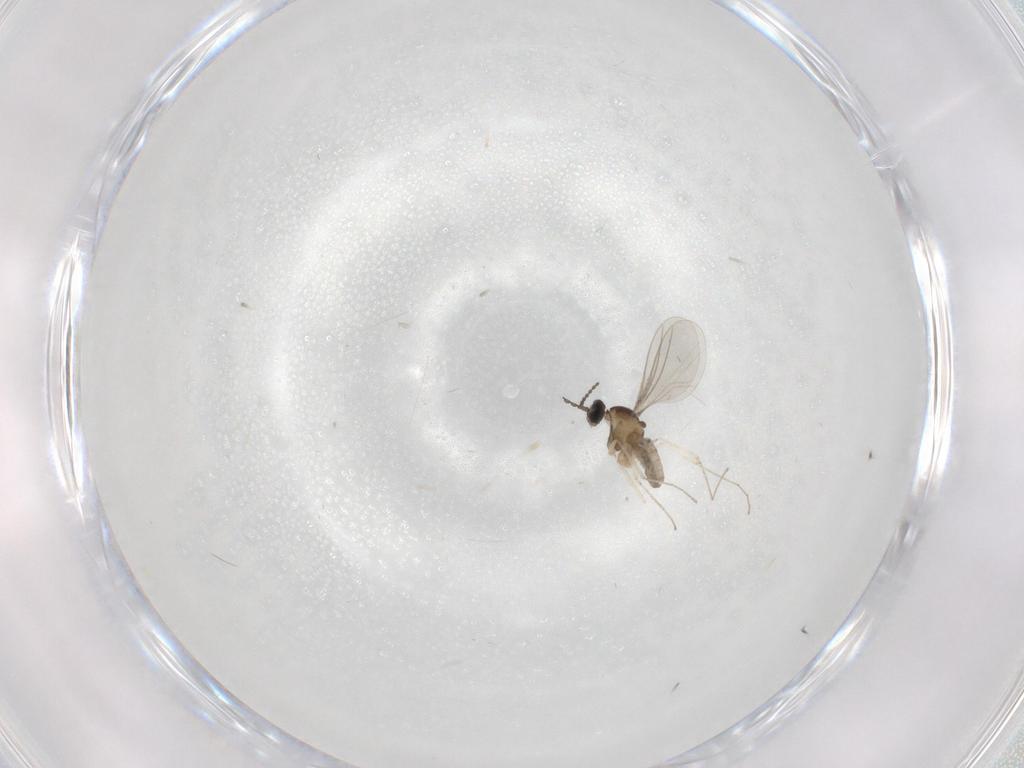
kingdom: Animalia
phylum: Arthropoda
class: Insecta
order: Diptera
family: Cecidomyiidae
